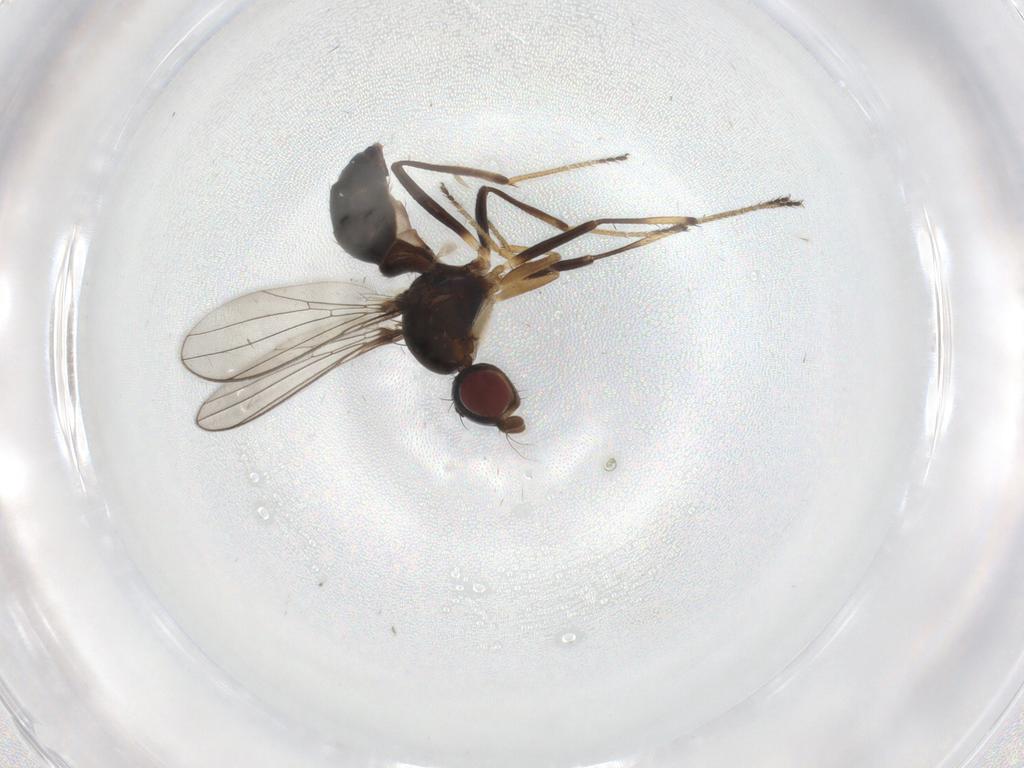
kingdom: Animalia
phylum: Arthropoda
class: Insecta
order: Diptera
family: Sepsidae
